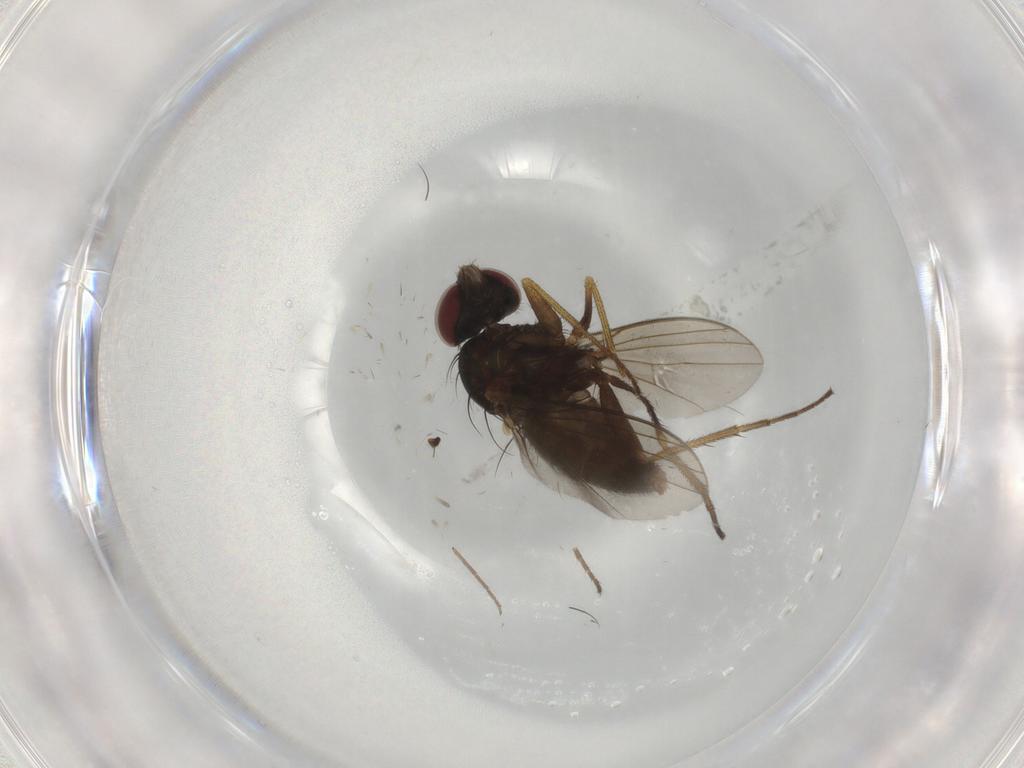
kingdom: Animalia
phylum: Arthropoda
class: Insecta
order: Diptera
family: Dolichopodidae
